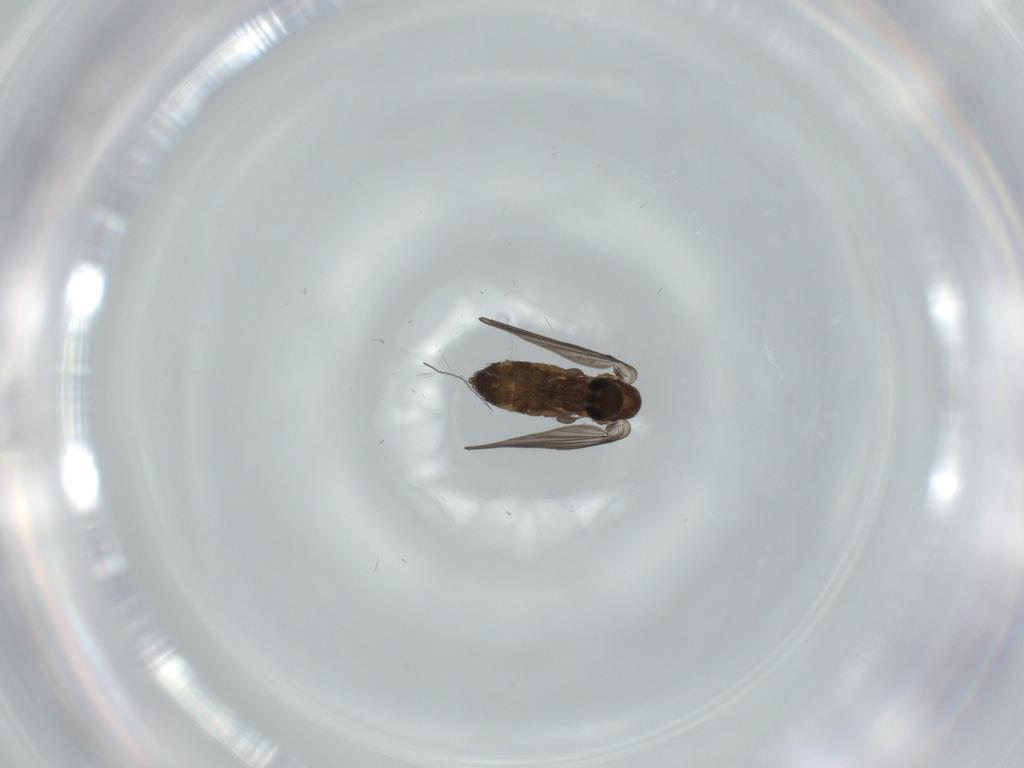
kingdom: Animalia
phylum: Arthropoda
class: Insecta
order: Diptera
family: Psychodidae
